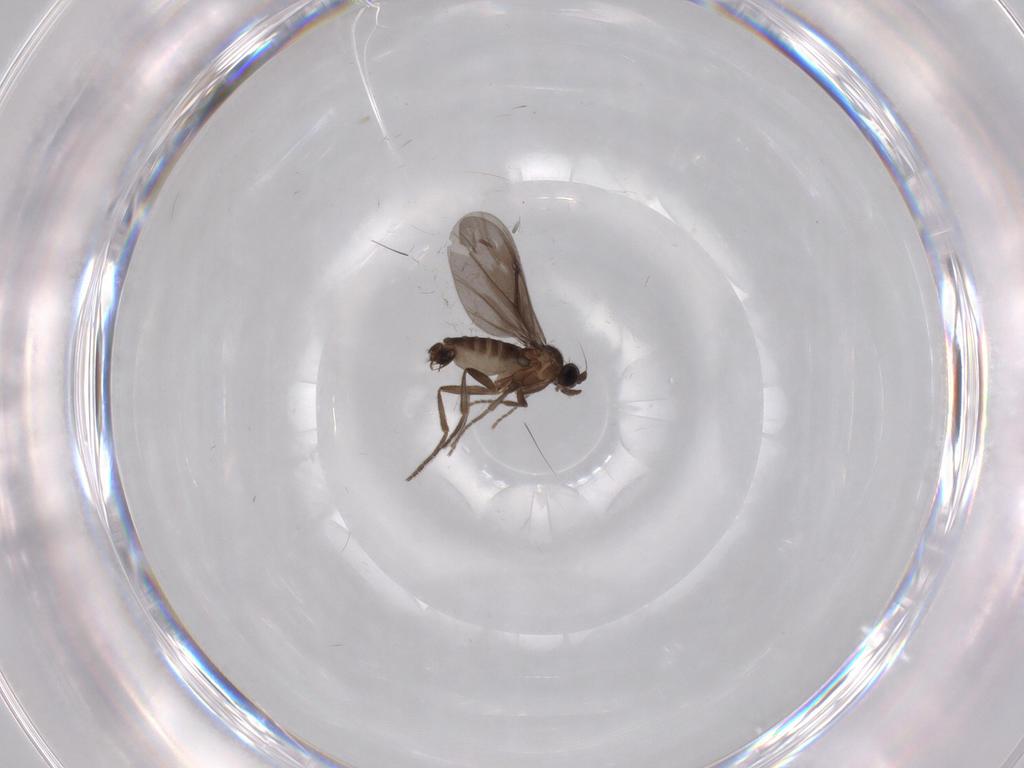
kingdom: Animalia
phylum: Arthropoda
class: Insecta
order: Diptera
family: Phoridae
